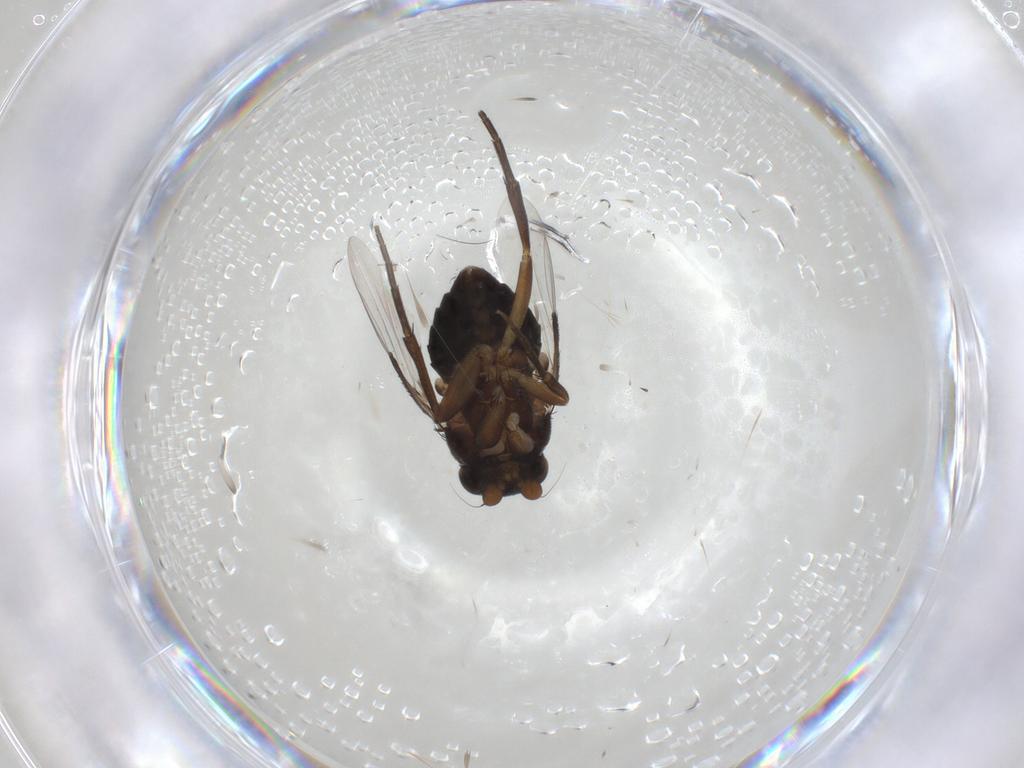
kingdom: Animalia
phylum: Arthropoda
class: Insecta
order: Diptera
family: Phoridae
